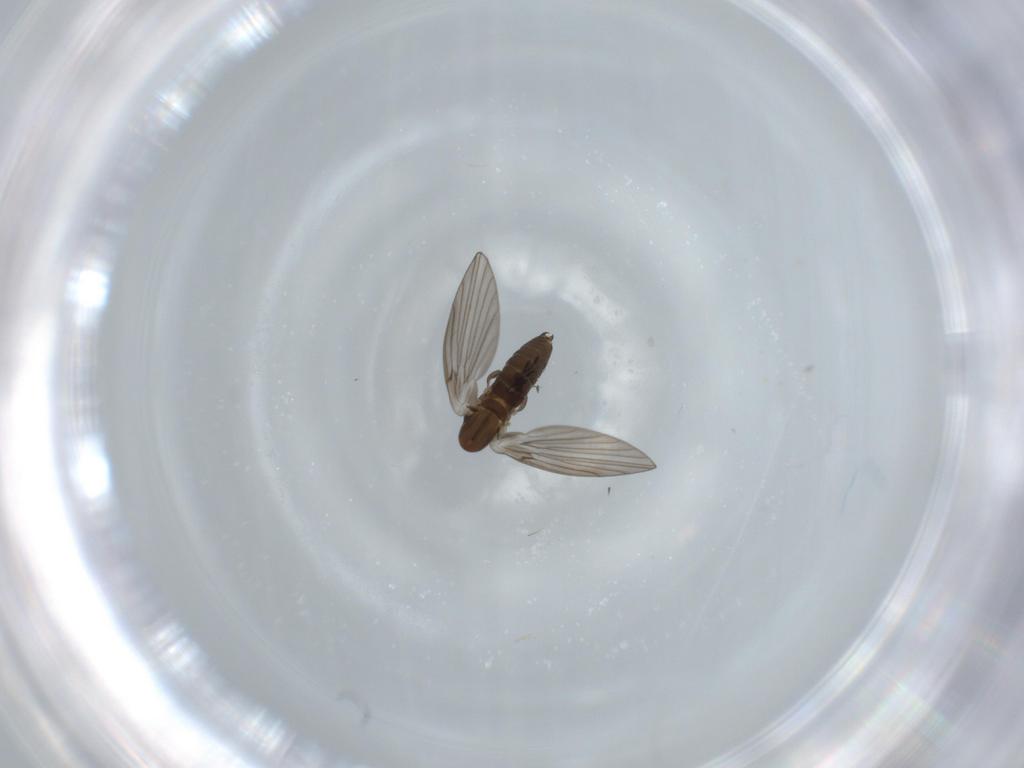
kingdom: Animalia
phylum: Arthropoda
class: Insecta
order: Diptera
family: Psychodidae
